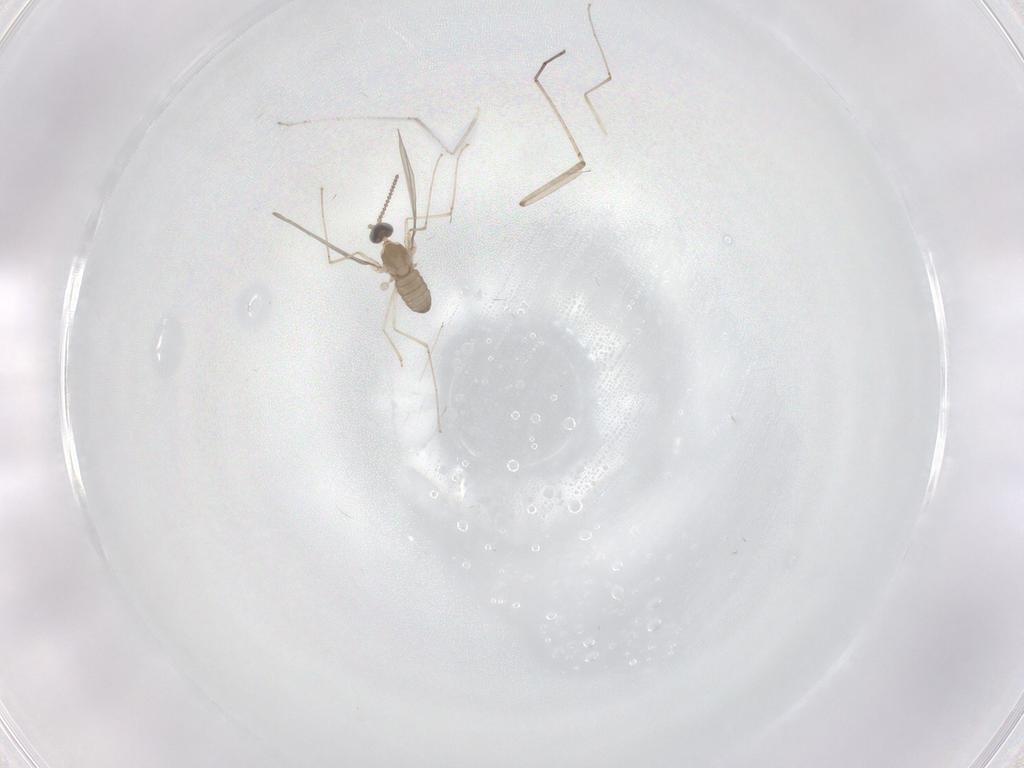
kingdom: Animalia
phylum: Arthropoda
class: Insecta
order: Diptera
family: Cecidomyiidae
